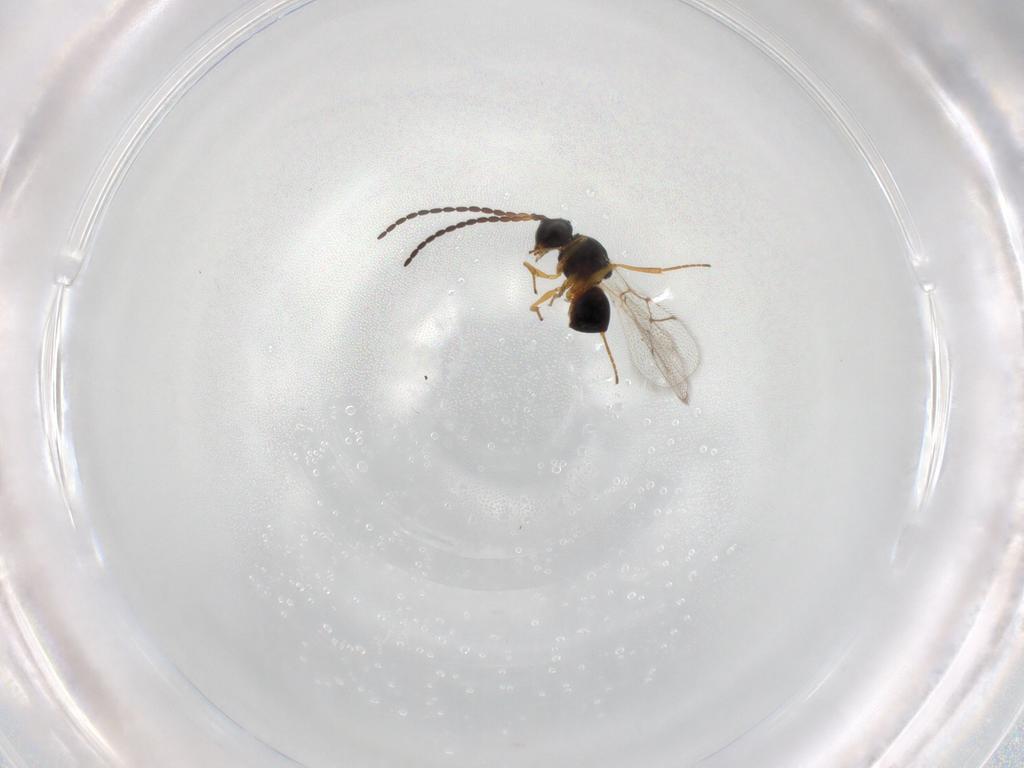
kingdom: Animalia
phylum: Arthropoda
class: Insecta
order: Hymenoptera
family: Figitidae
